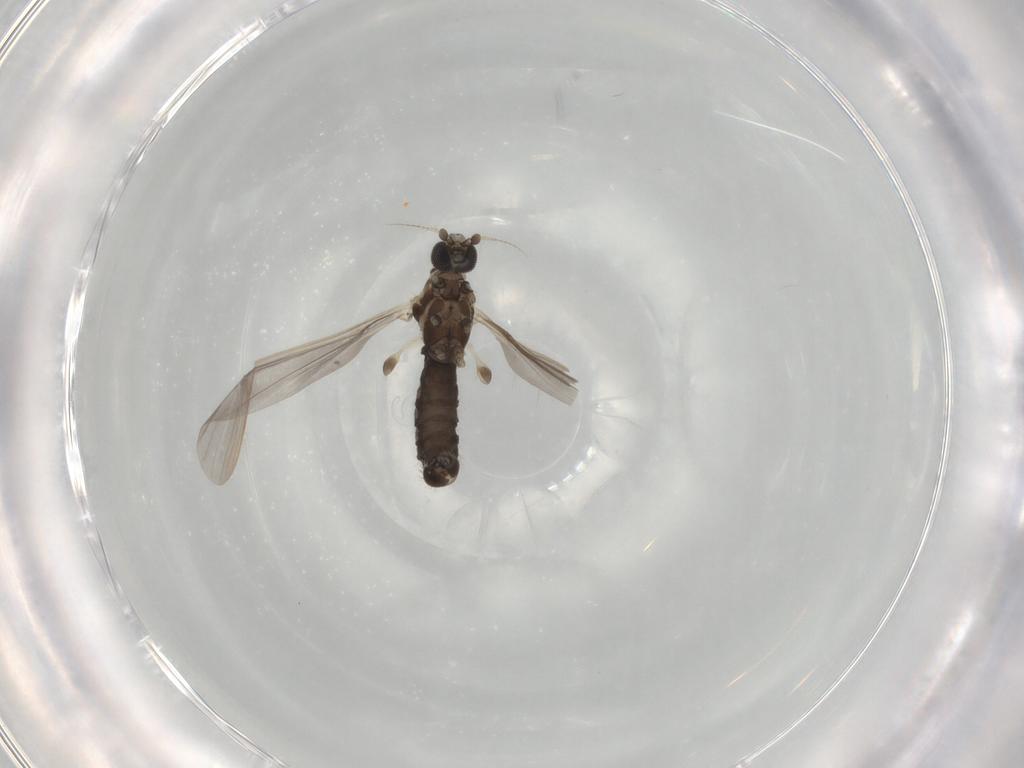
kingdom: Animalia
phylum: Arthropoda
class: Insecta
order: Diptera
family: Limoniidae
